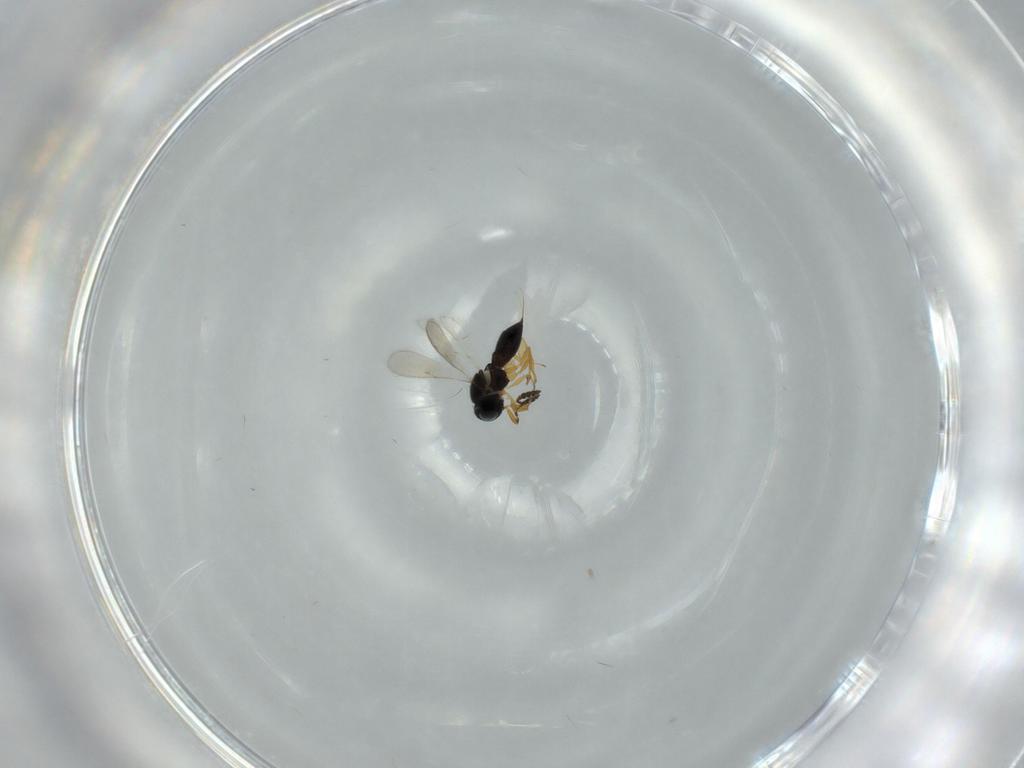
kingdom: Animalia
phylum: Arthropoda
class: Insecta
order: Hymenoptera
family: Scelionidae
